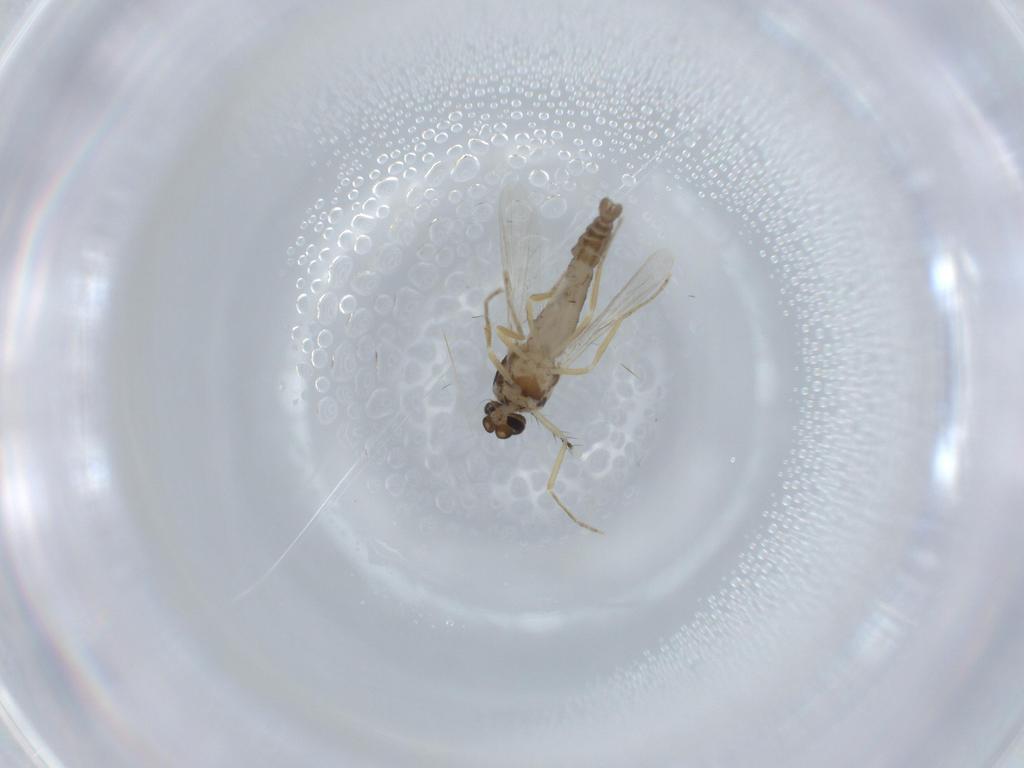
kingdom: Animalia
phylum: Arthropoda
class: Insecta
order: Diptera
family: Ceratopogonidae
